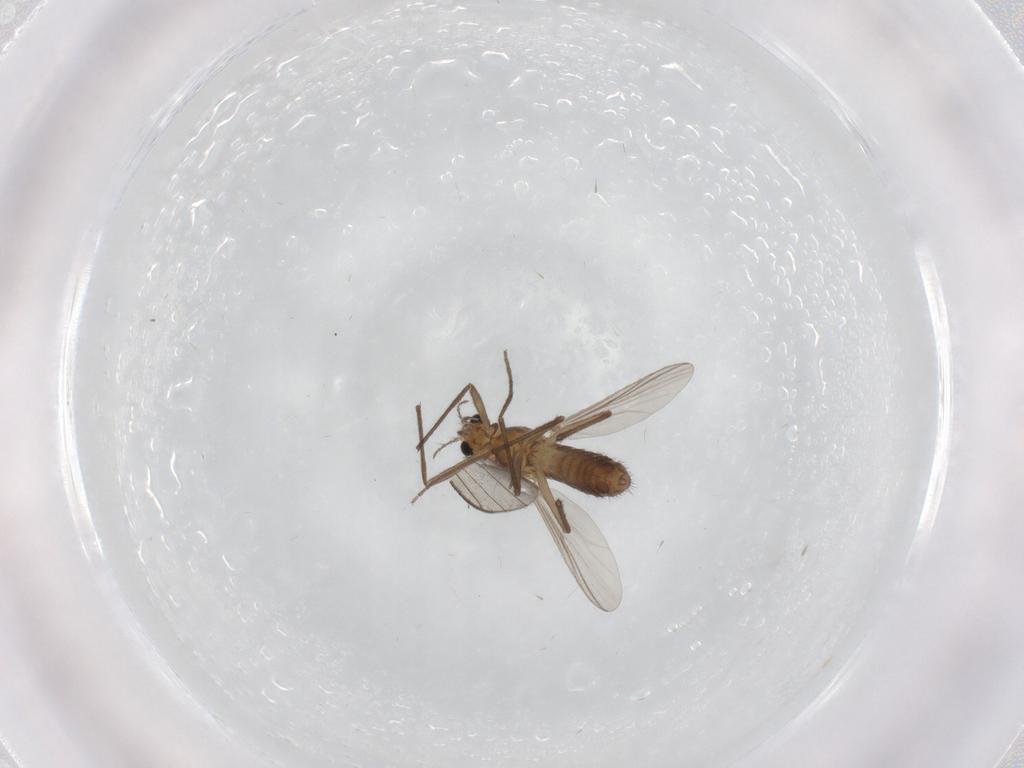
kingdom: Animalia
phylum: Arthropoda
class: Insecta
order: Diptera
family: Chironomidae
